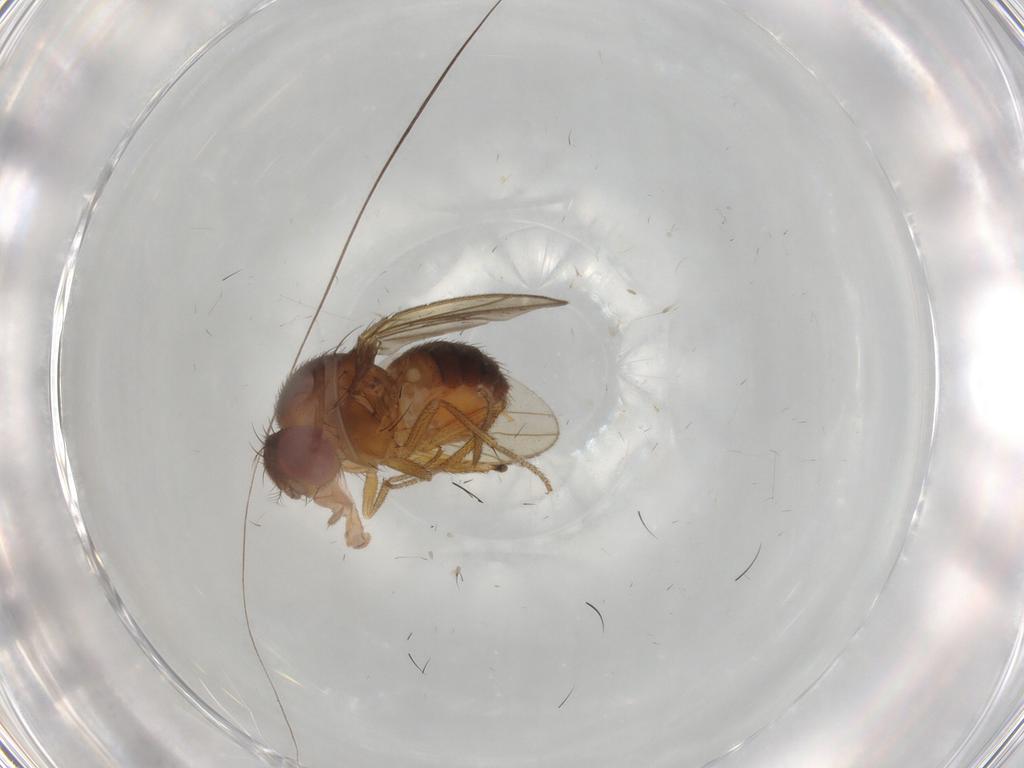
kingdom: Animalia
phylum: Arthropoda
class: Insecta
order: Diptera
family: Drosophilidae
